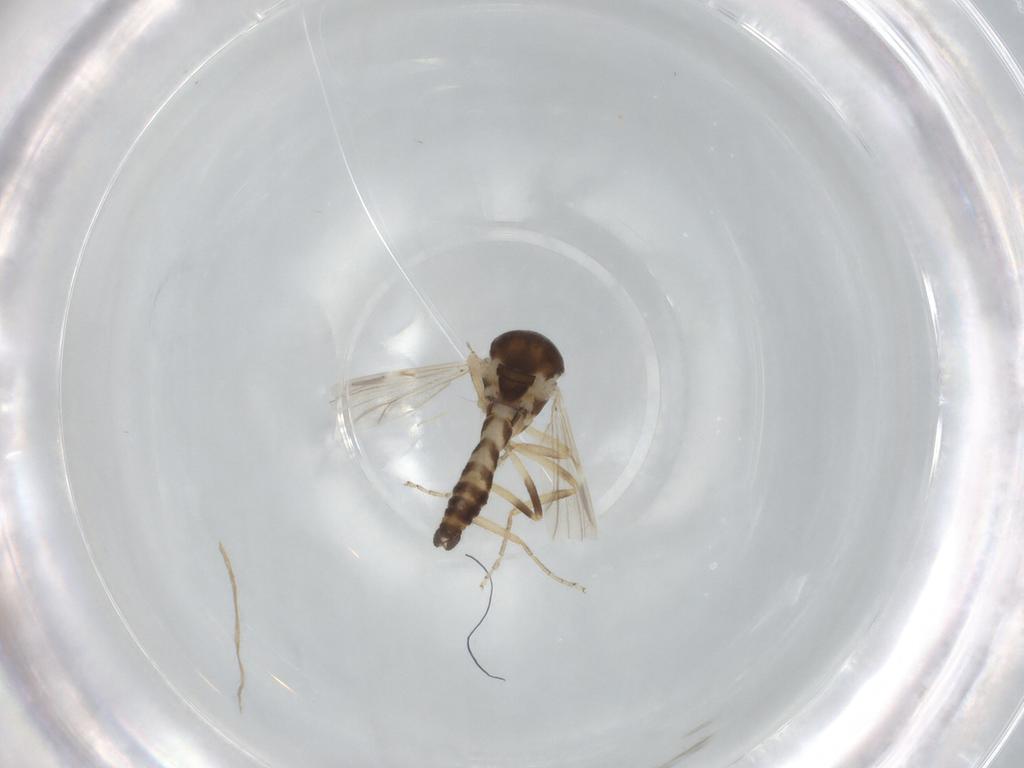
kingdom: Animalia
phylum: Arthropoda
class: Insecta
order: Diptera
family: Ceratopogonidae
